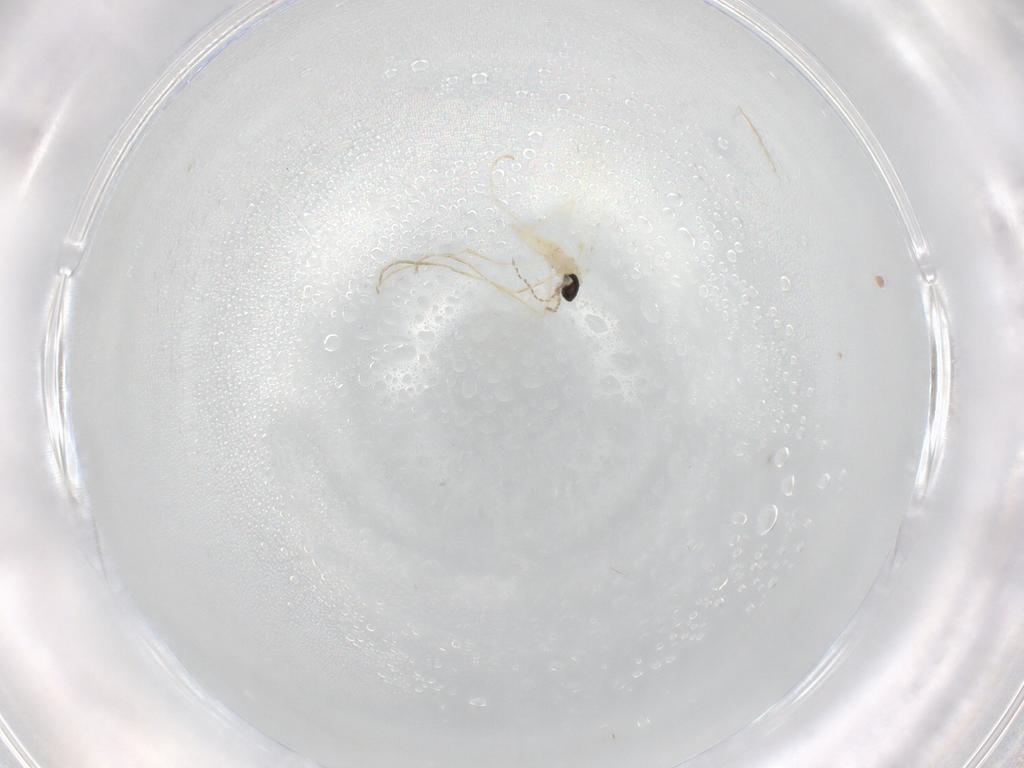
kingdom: Animalia
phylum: Arthropoda
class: Insecta
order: Diptera
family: Cecidomyiidae
